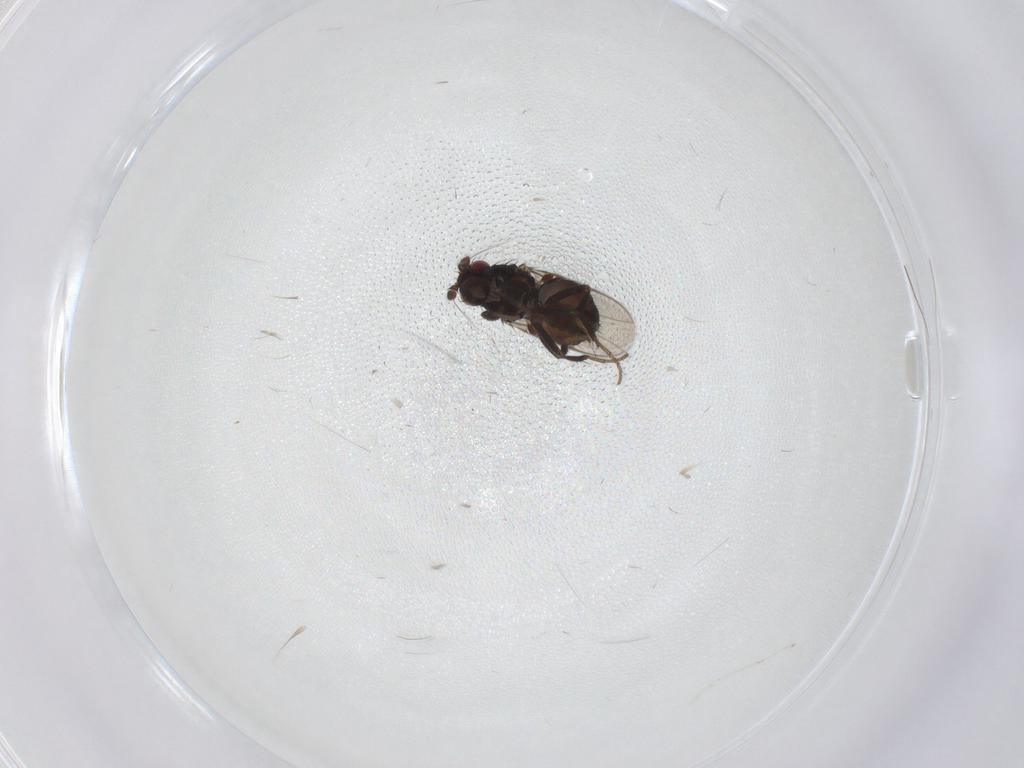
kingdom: Animalia
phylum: Arthropoda
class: Insecta
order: Diptera
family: Sphaeroceridae
